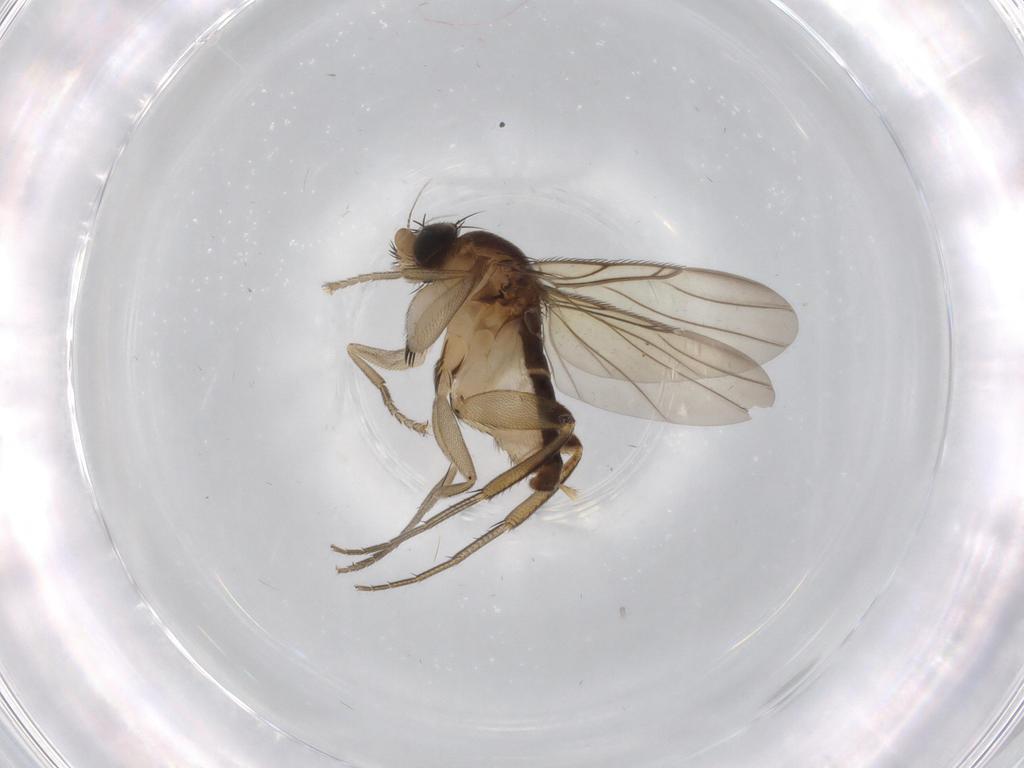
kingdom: Animalia
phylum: Arthropoda
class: Insecta
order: Diptera
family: Phoridae
